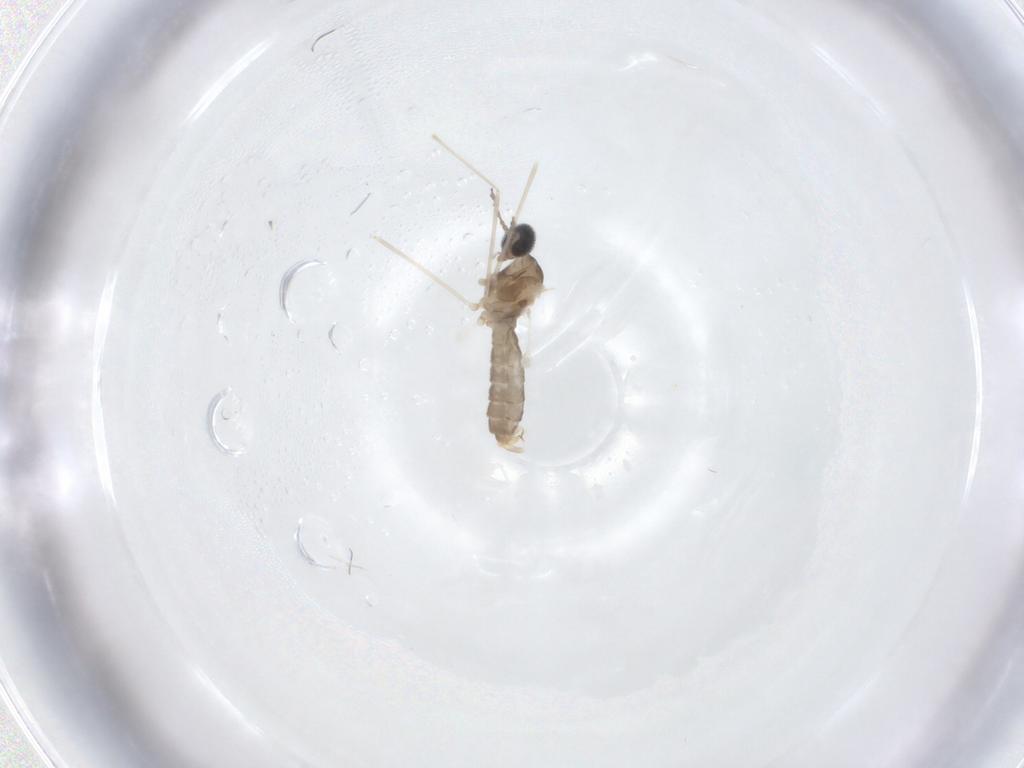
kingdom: Animalia
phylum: Arthropoda
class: Insecta
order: Diptera
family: Cecidomyiidae
